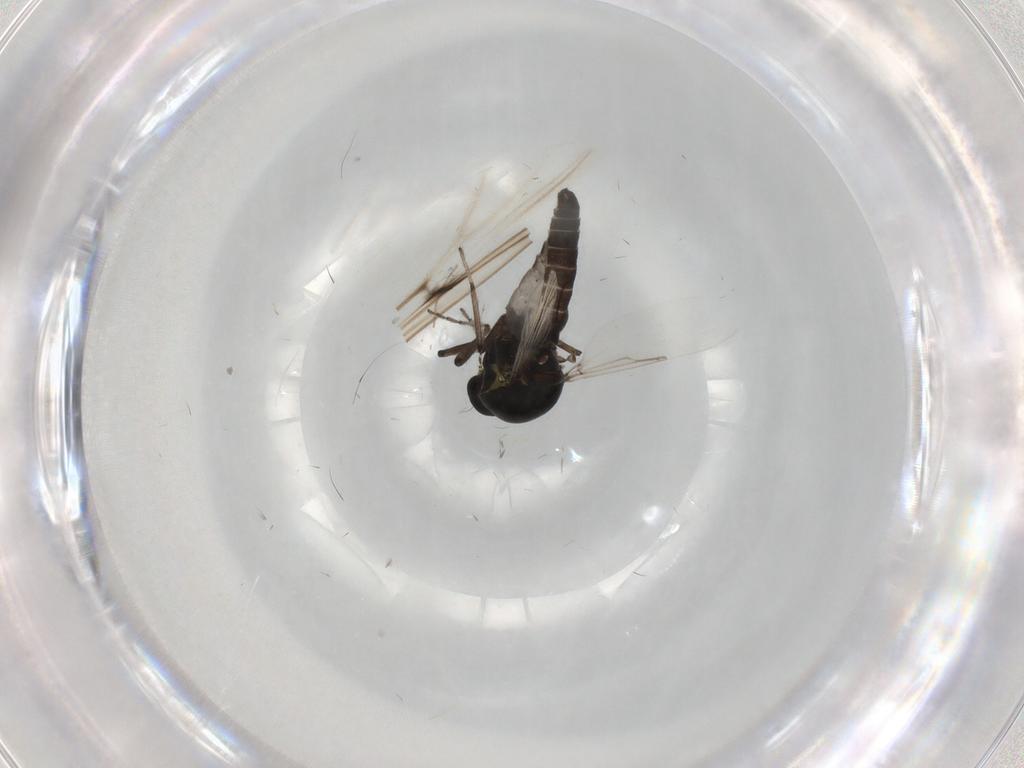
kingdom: Animalia
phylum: Arthropoda
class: Insecta
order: Diptera
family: Ceratopogonidae
